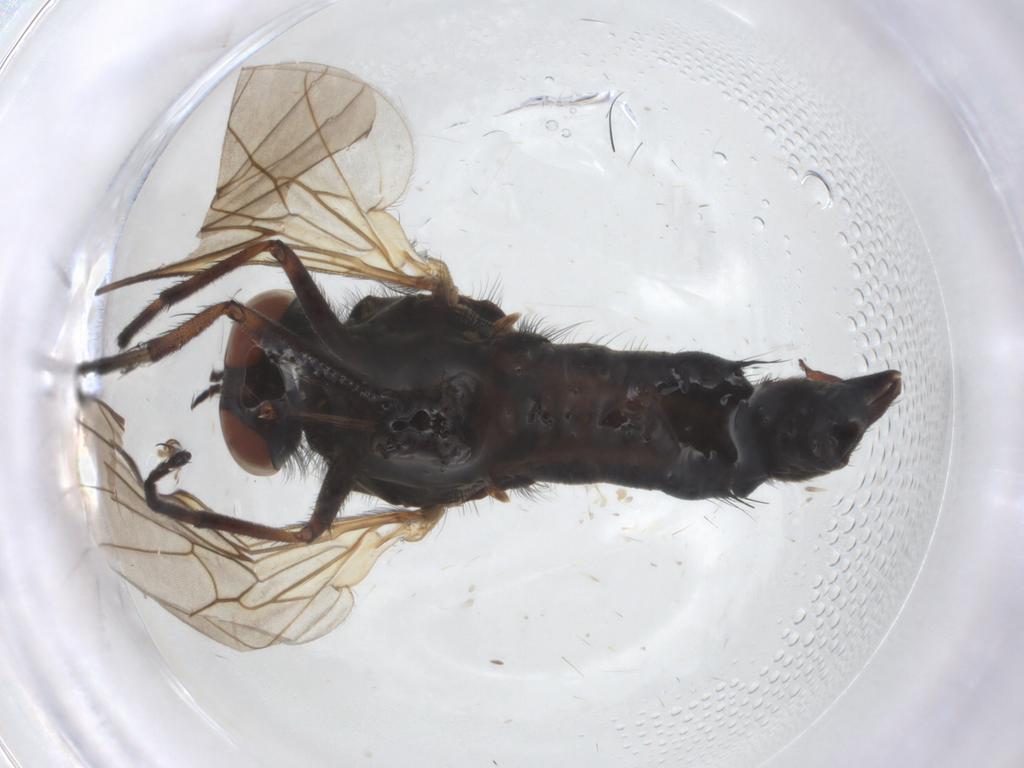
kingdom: Animalia
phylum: Arthropoda
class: Insecta
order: Diptera
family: Empididae
